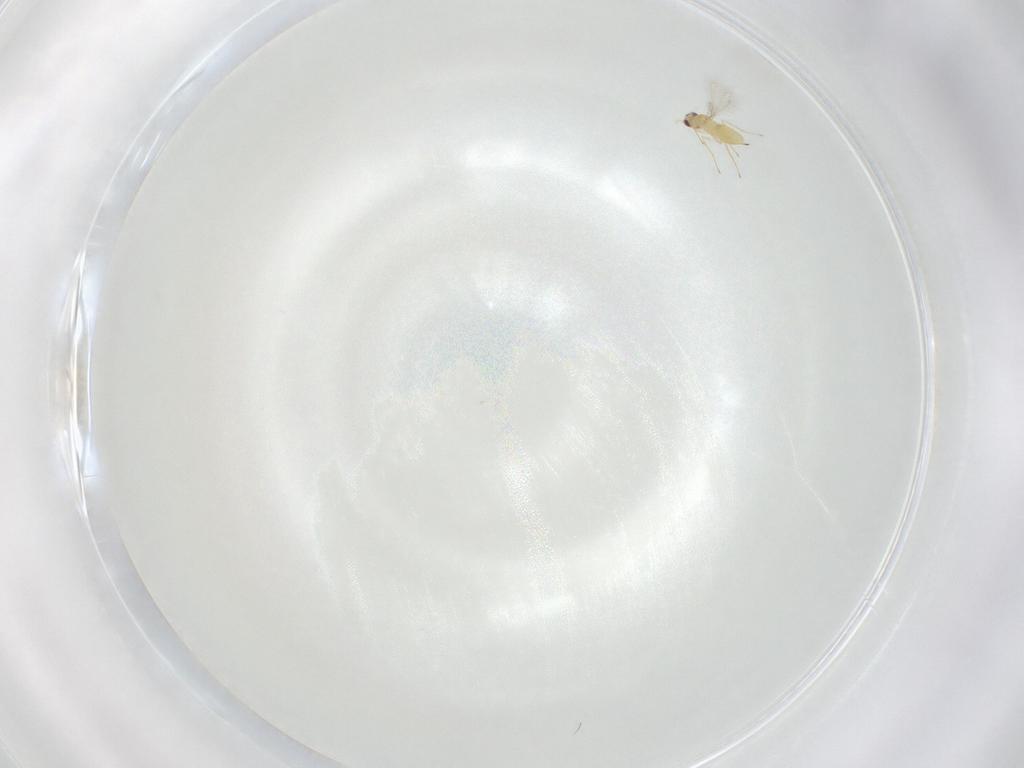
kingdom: Animalia
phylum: Arthropoda
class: Insecta
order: Hymenoptera
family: Mymaridae
